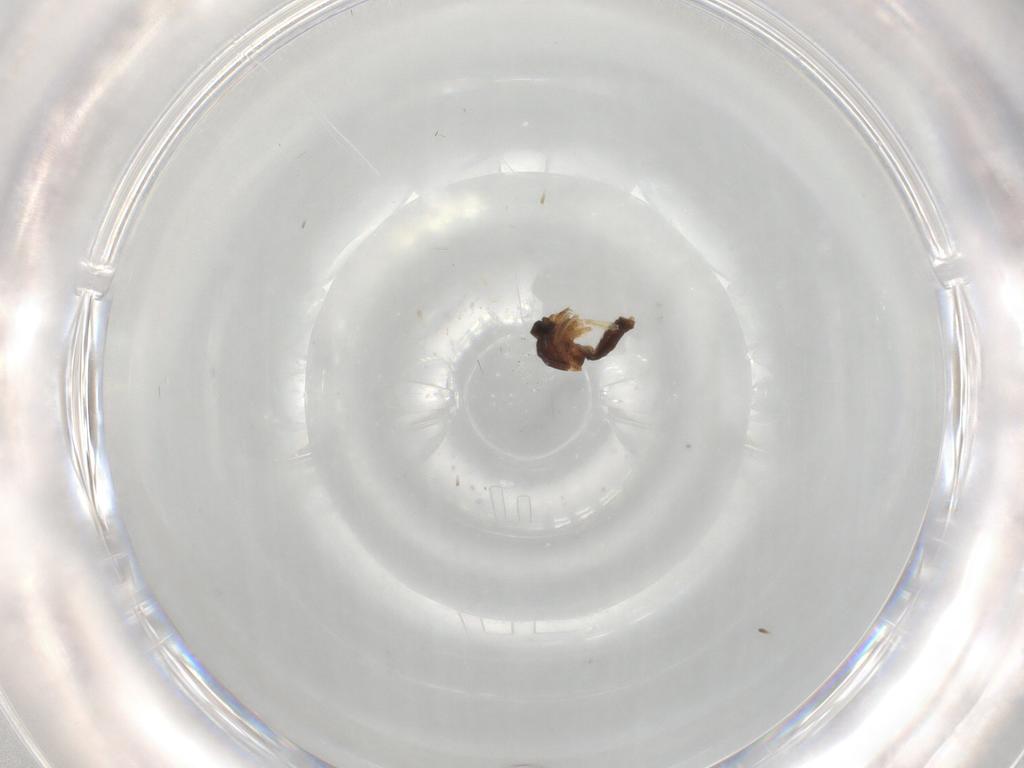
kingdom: Animalia
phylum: Arthropoda
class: Insecta
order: Diptera
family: Ceratopogonidae
